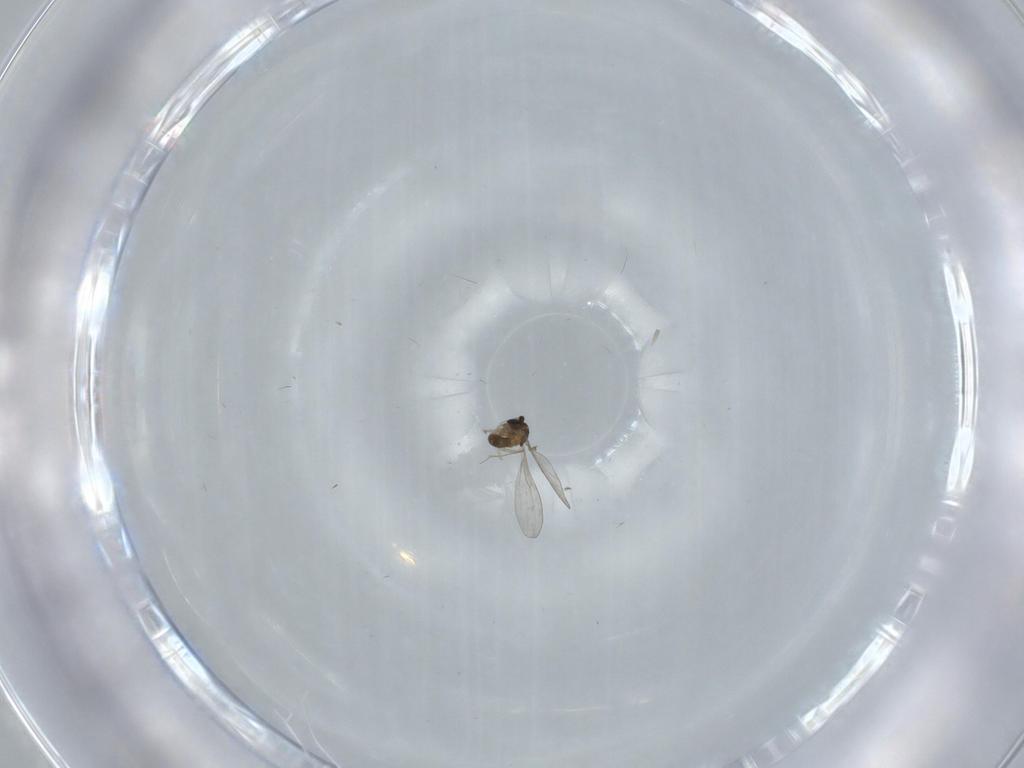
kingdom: Animalia
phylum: Arthropoda
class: Insecta
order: Diptera
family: Cecidomyiidae
